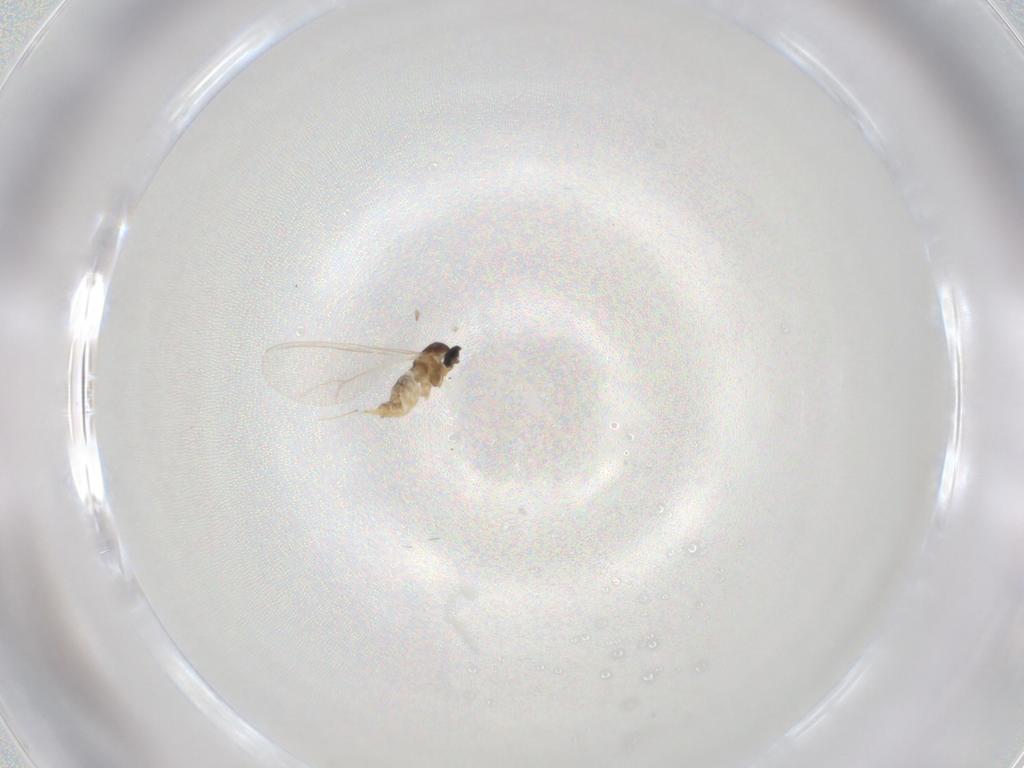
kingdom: Animalia
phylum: Arthropoda
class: Insecta
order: Diptera
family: Cecidomyiidae
